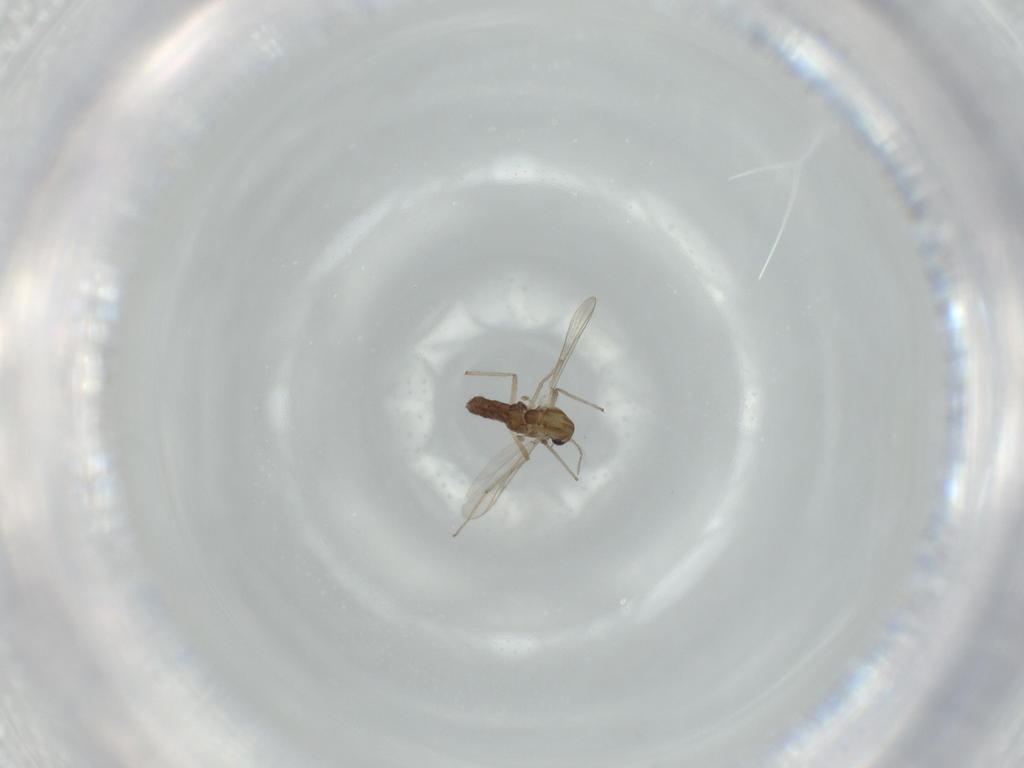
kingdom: Animalia
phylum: Arthropoda
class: Insecta
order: Diptera
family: Chironomidae
